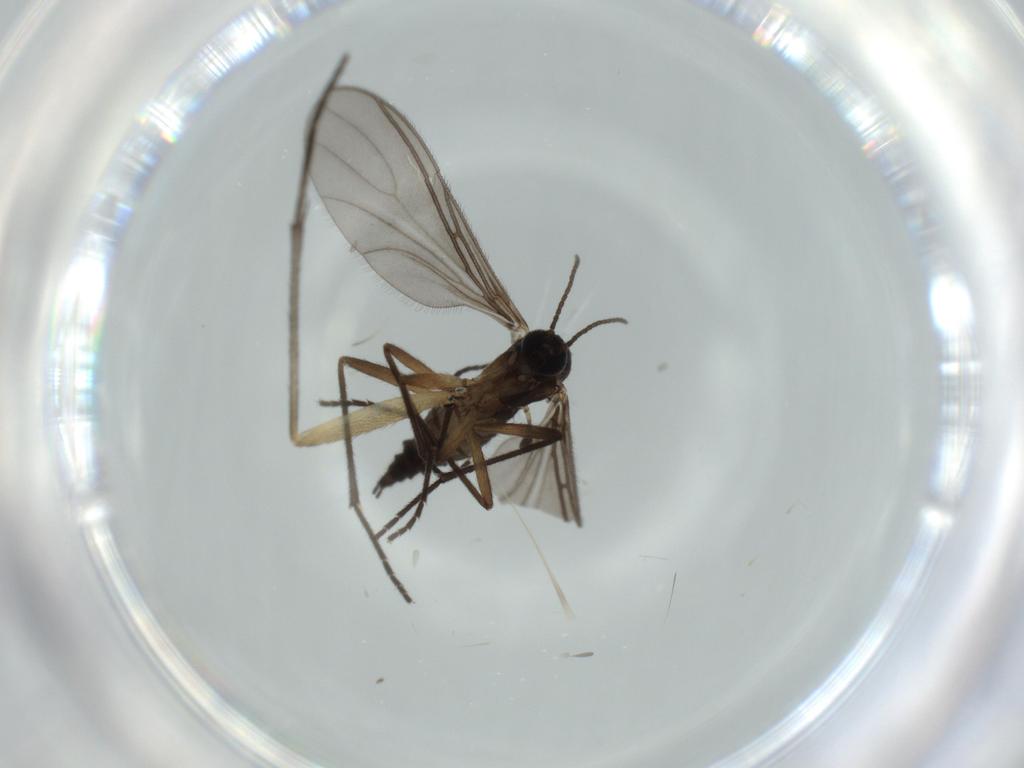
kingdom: Animalia
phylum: Arthropoda
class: Insecta
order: Diptera
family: Sciaridae
